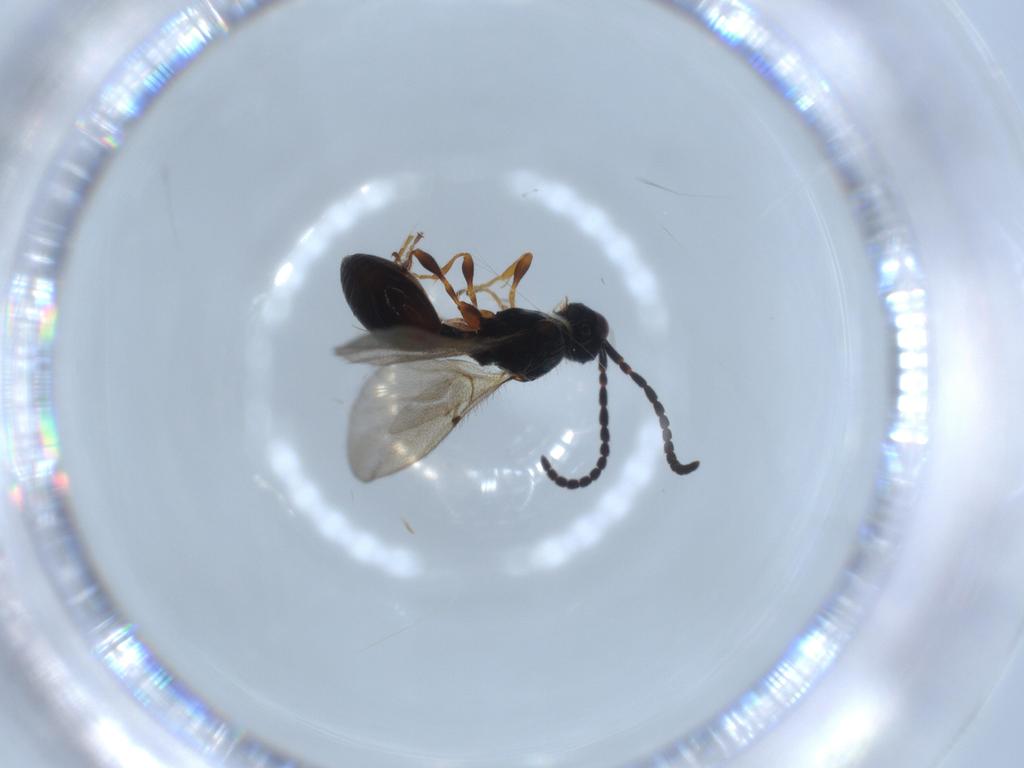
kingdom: Animalia
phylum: Arthropoda
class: Insecta
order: Hymenoptera
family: Diapriidae
